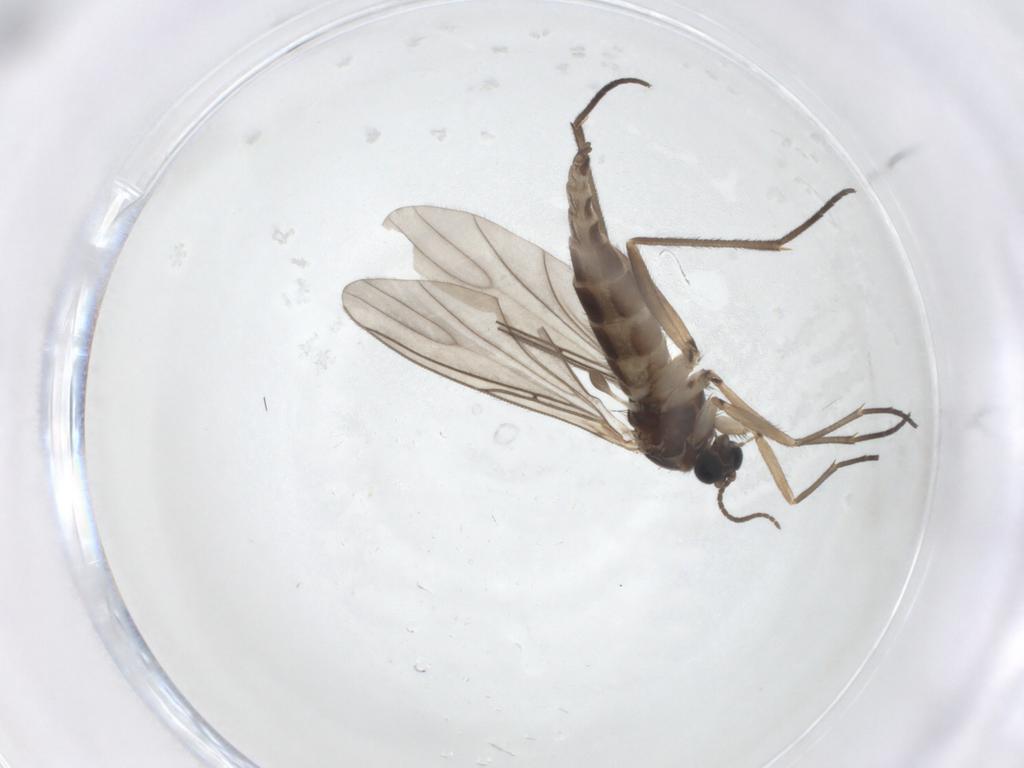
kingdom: Animalia
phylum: Arthropoda
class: Insecta
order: Diptera
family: Sciaridae
